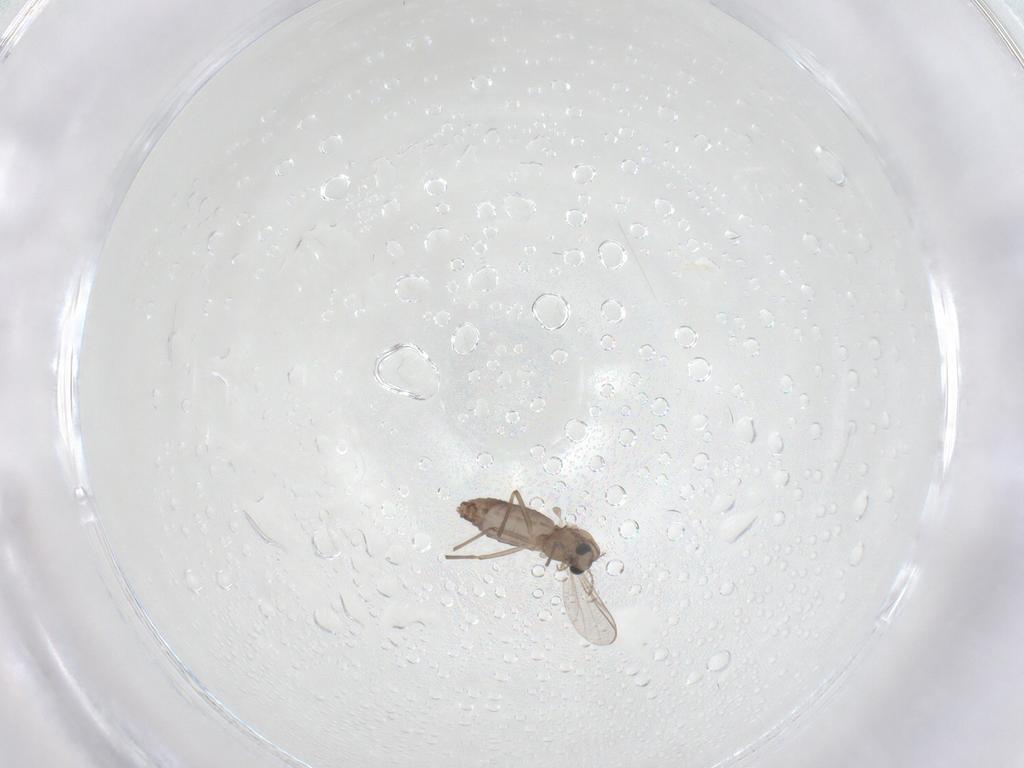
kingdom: Animalia
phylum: Arthropoda
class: Insecta
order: Diptera
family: Chironomidae
